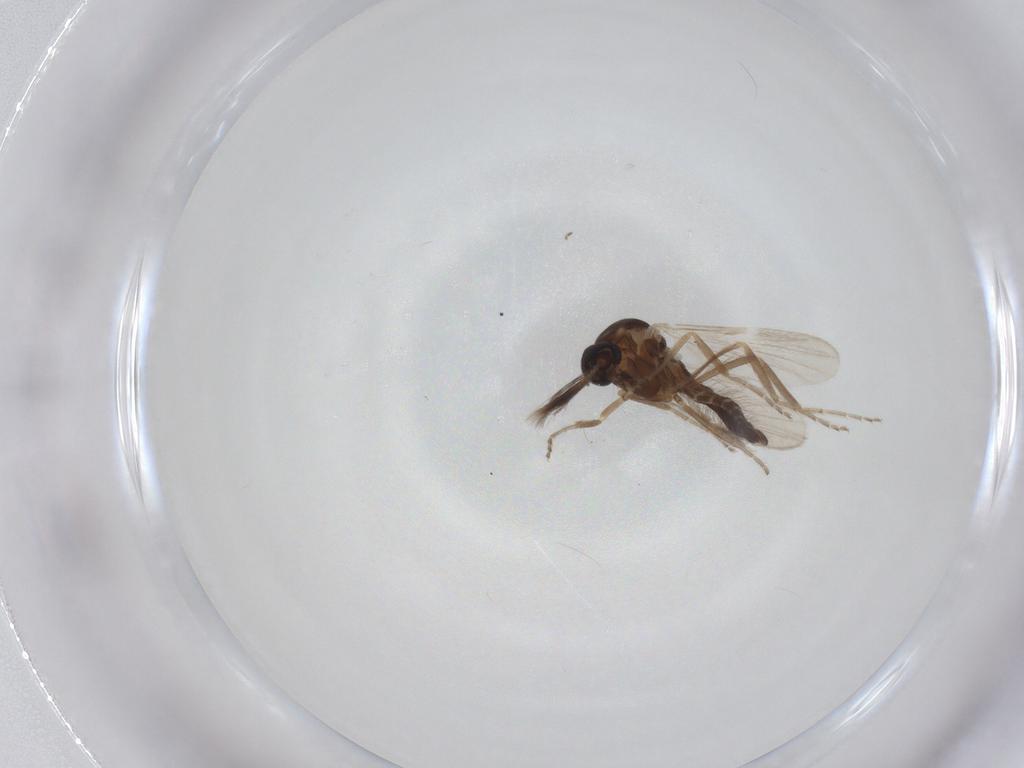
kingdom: Animalia
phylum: Arthropoda
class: Insecta
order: Diptera
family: Ceratopogonidae
